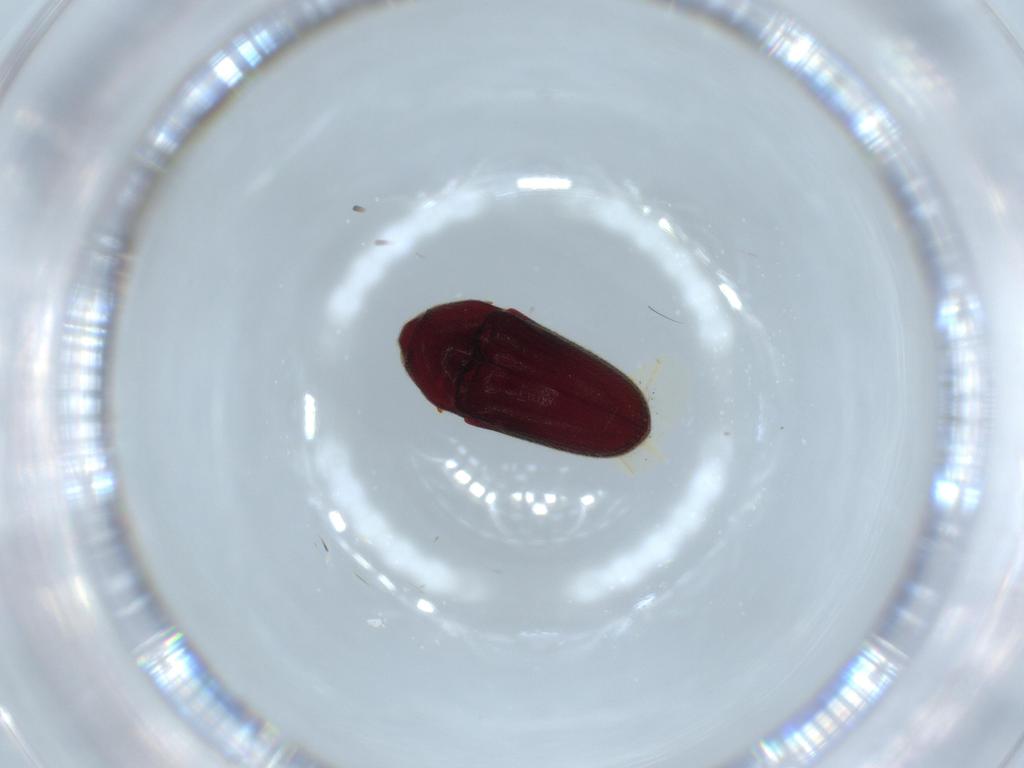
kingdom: Animalia
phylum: Arthropoda
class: Insecta
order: Coleoptera
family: Throscidae
